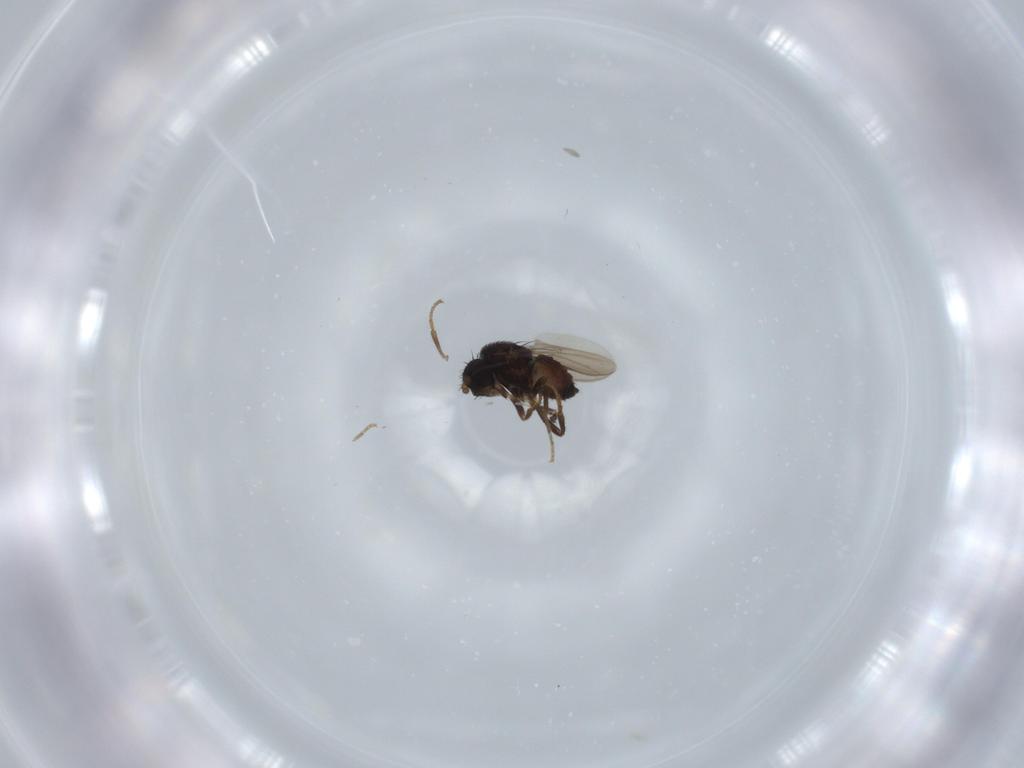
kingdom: Animalia
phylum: Arthropoda
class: Insecta
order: Diptera
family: Sphaeroceridae
